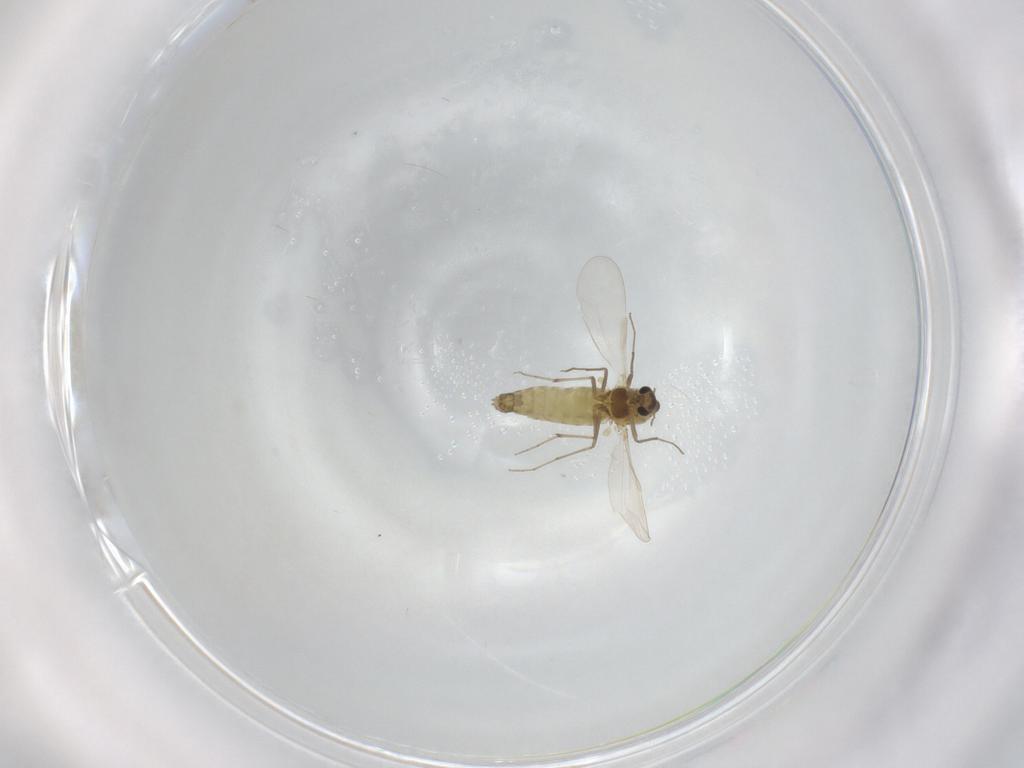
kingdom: Animalia
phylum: Arthropoda
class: Insecta
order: Diptera
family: Chironomidae
